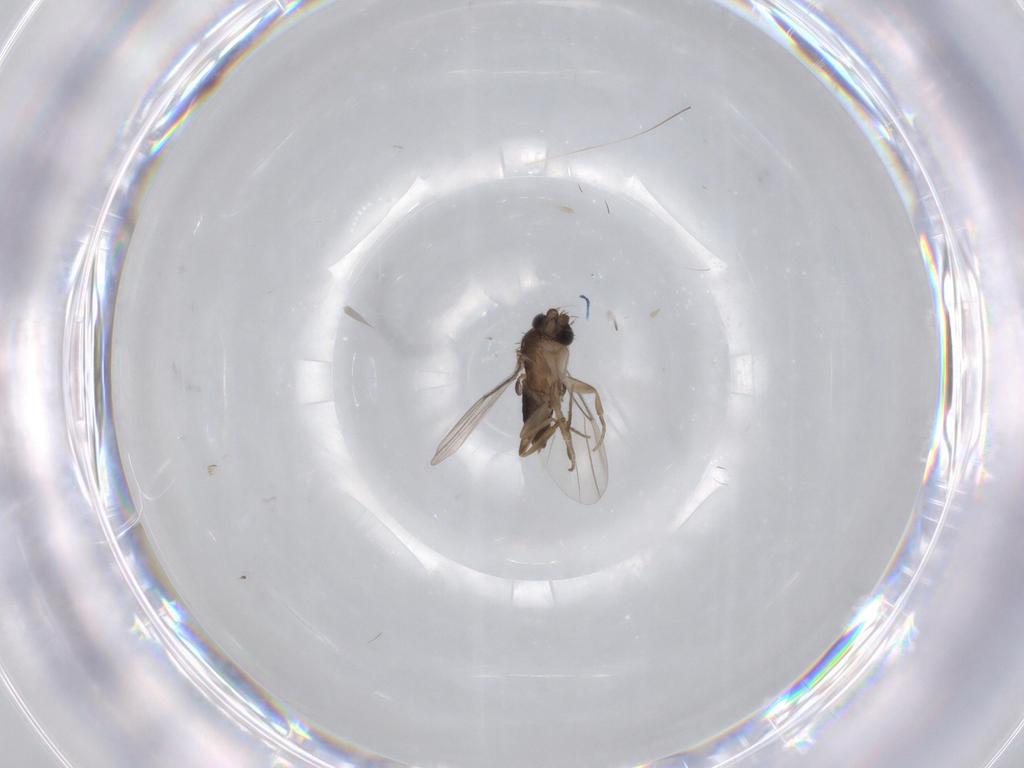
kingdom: Animalia
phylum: Arthropoda
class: Insecta
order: Diptera
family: Phoridae
